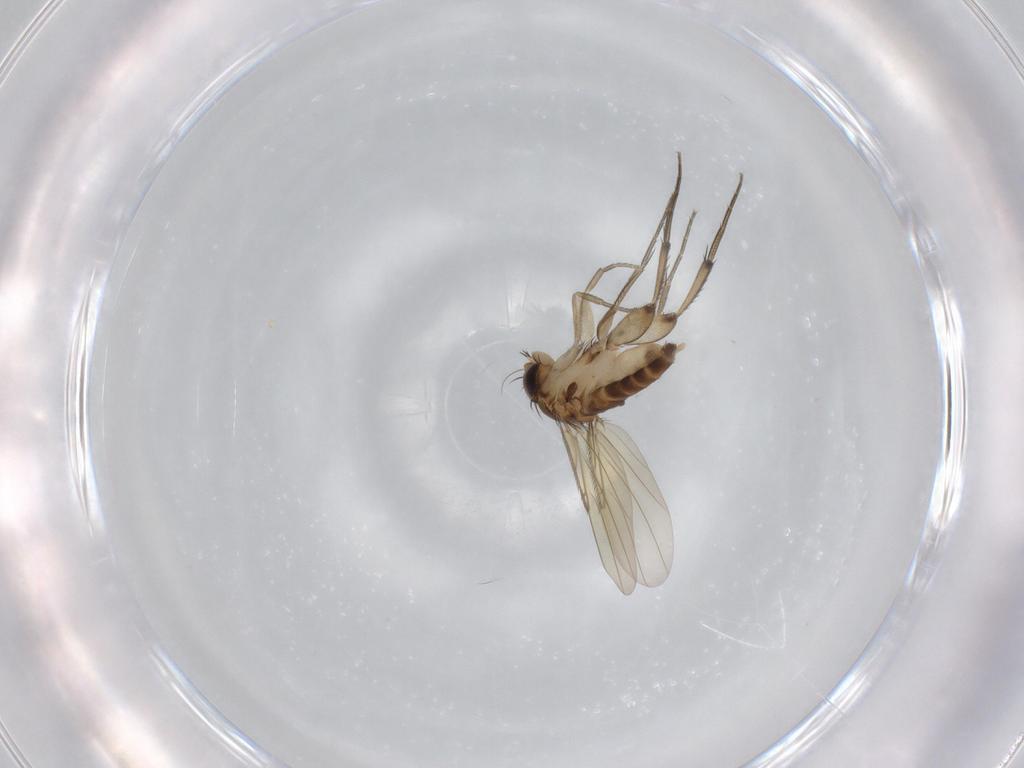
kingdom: Animalia
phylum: Arthropoda
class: Insecta
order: Diptera
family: Phoridae
